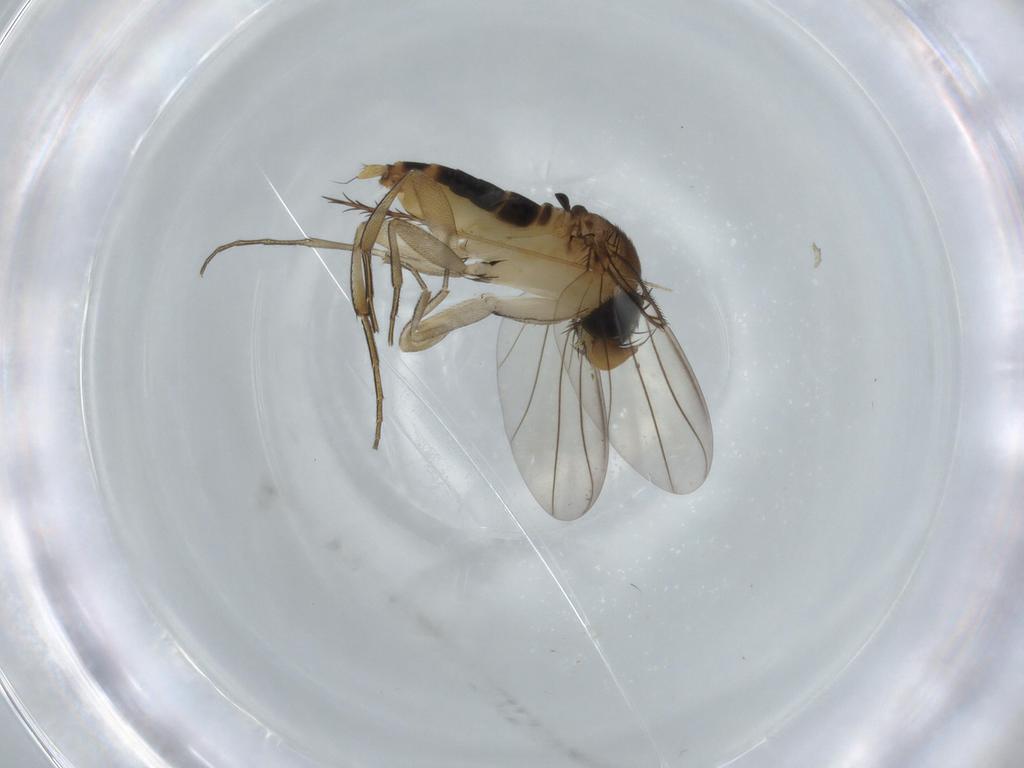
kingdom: Animalia
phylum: Arthropoda
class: Insecta
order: Diptera
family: Phoridae
